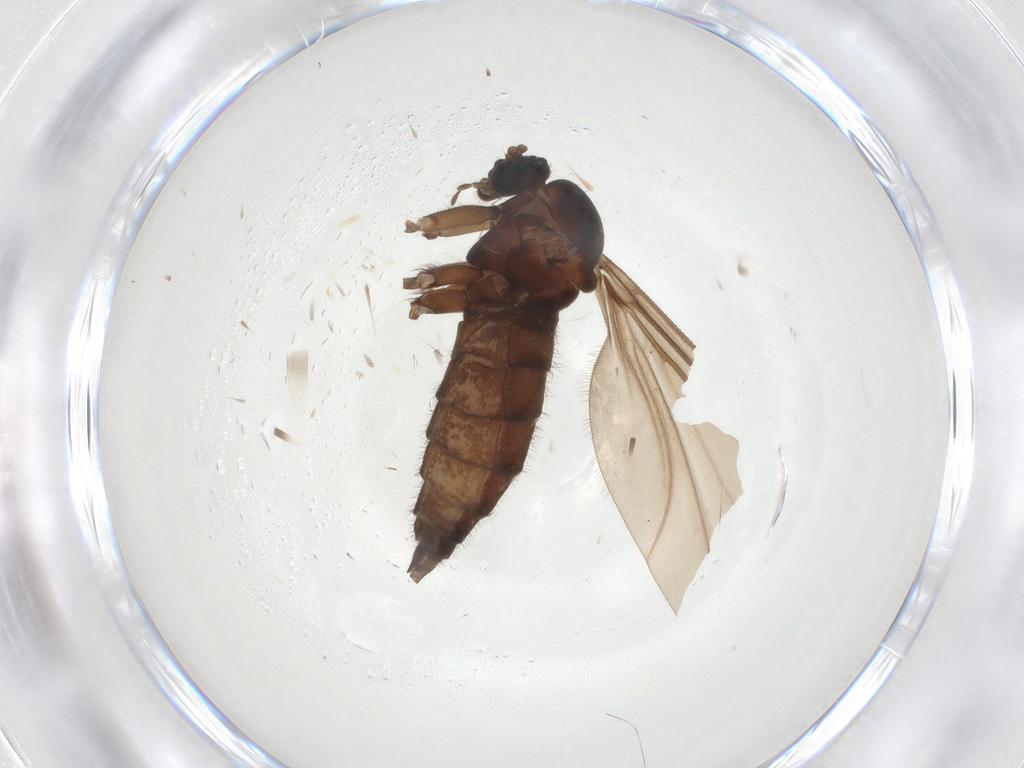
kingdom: Animalia
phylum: Arthropoda
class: Insecta
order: Diptera
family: Sciaridae
